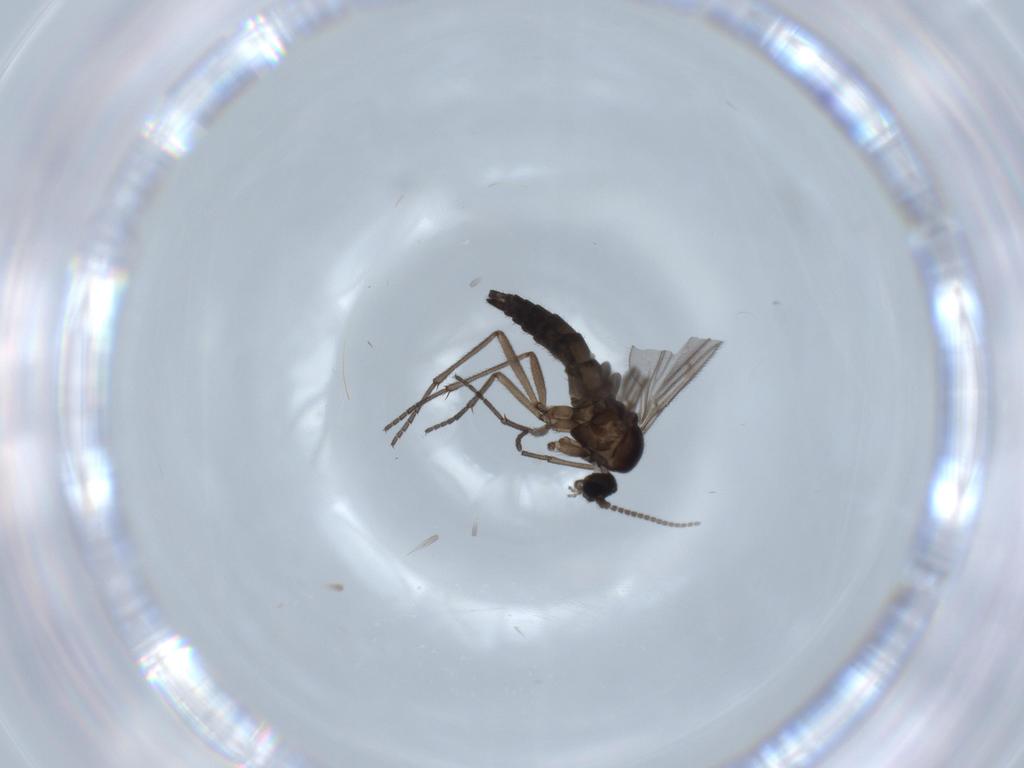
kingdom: Animalia
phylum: Arthropoda
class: Insecta
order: Diptera
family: Sciaridae
